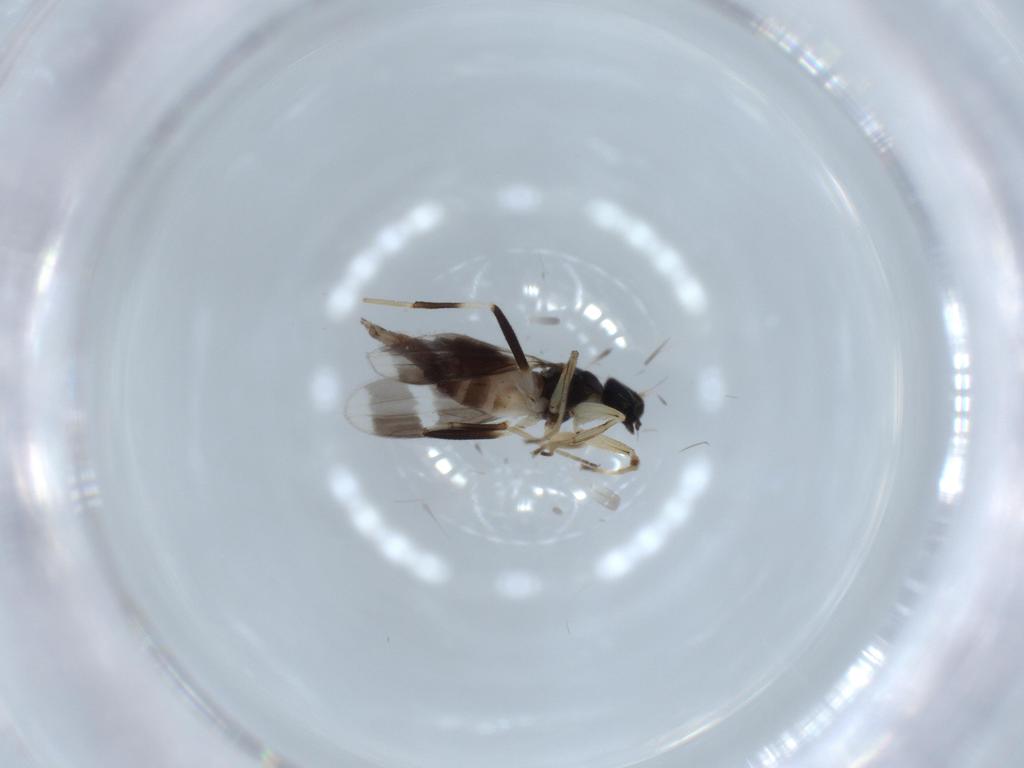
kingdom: Animalia
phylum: Arthropoda
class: Insecta
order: Diptera
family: Hybotidae
